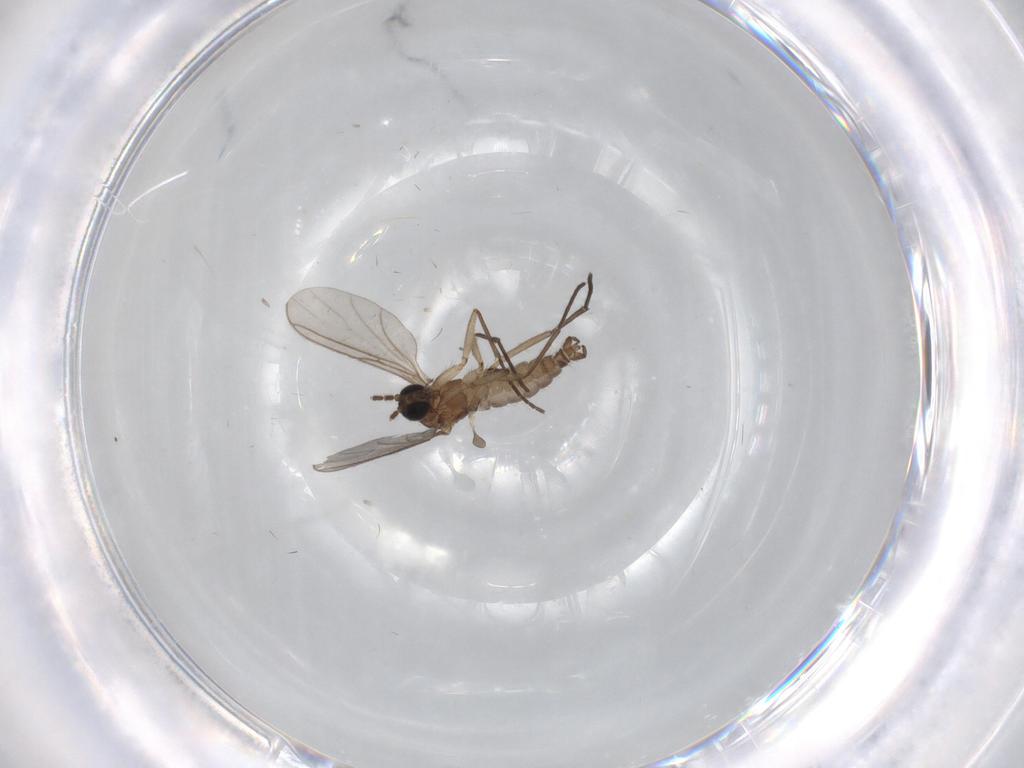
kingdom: Animalia
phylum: Arthropoda
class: Insecta
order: Diptera
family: Sciaridae
